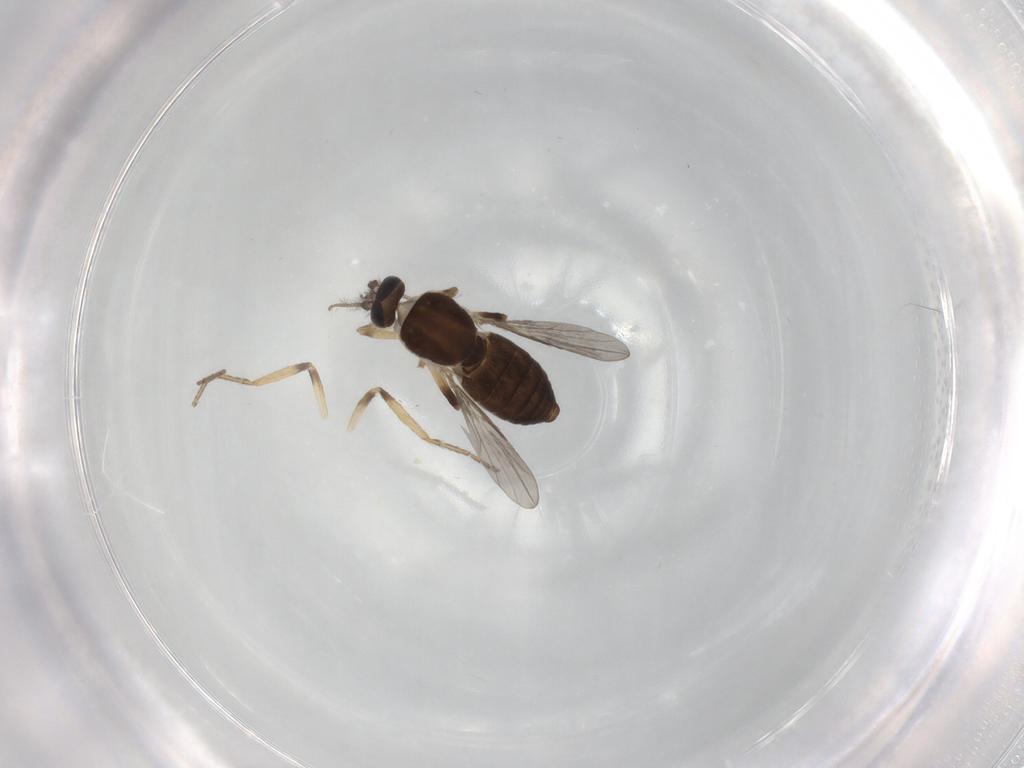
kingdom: Animalia
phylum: Arthropoda
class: Insecta
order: Diptera
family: Ceratopogonidae
